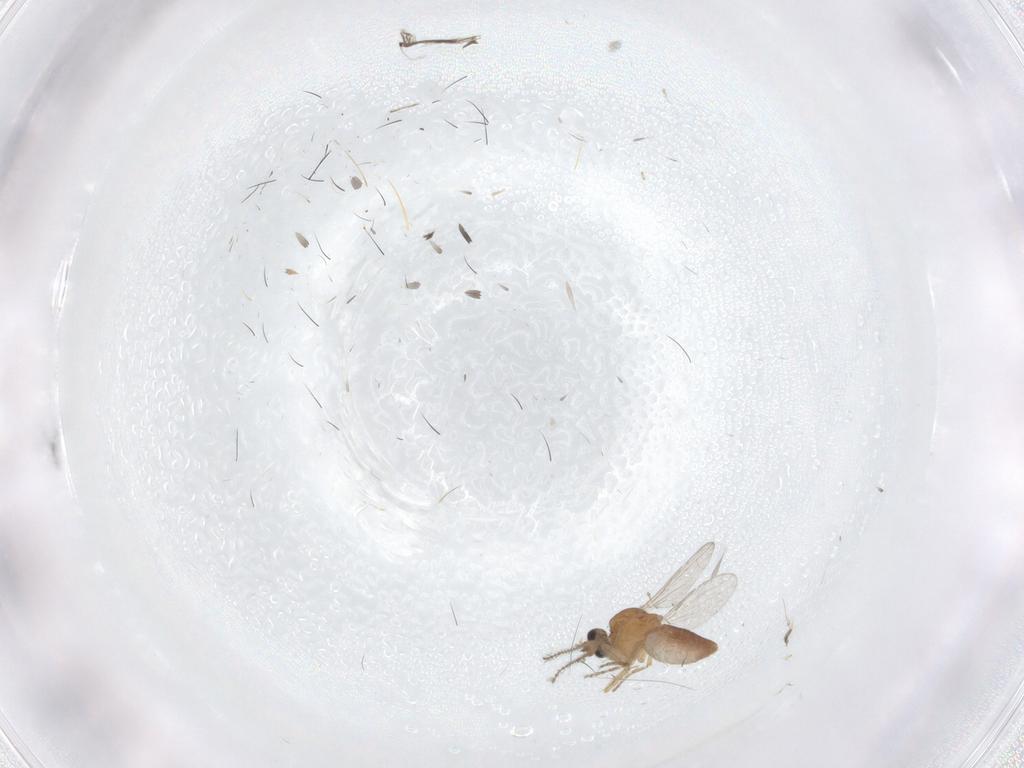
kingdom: Animalia
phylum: Arthropoda
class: Insecta
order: Diptera
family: Ceratopogonidae
